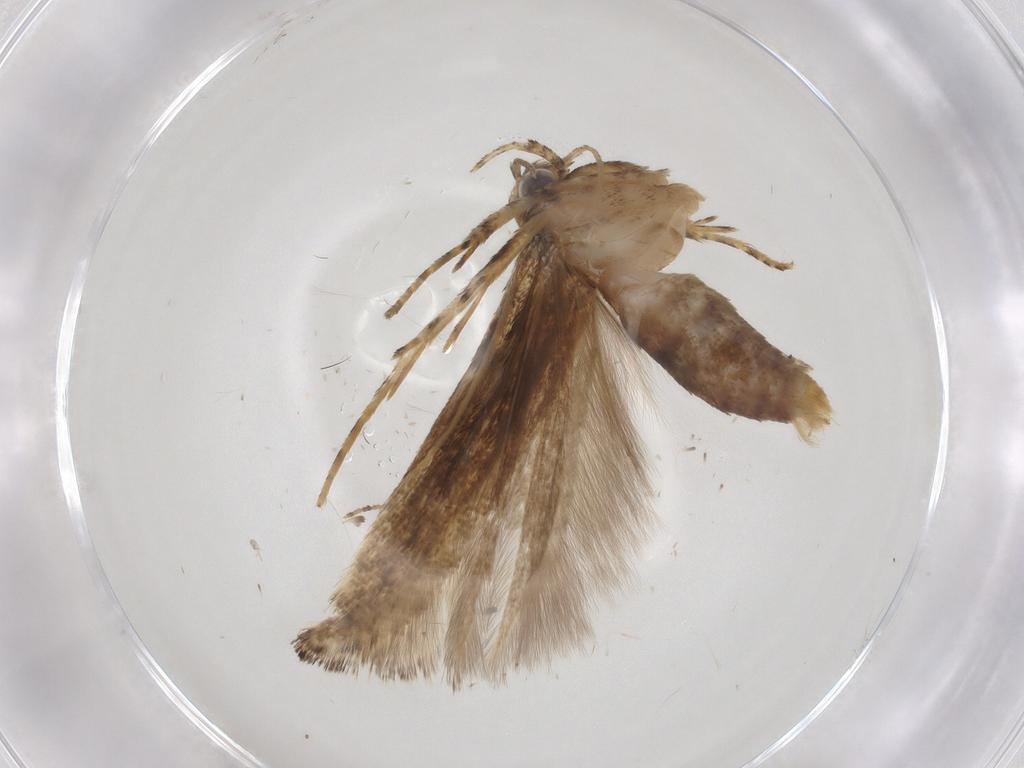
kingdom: Animalia
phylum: Arthropoda
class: Insecta
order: Lepidoptera
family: Gelechiidae
